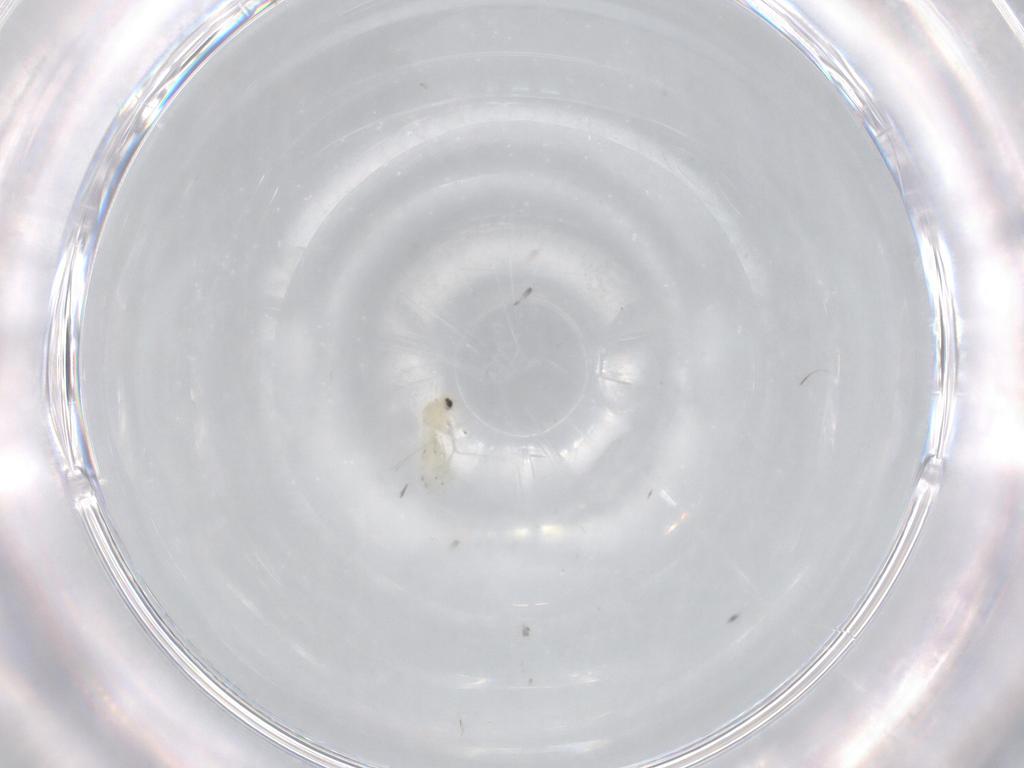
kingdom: Animalia
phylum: Arthropoda
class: Insecta
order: Hemiptera
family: Aleyrodidae
